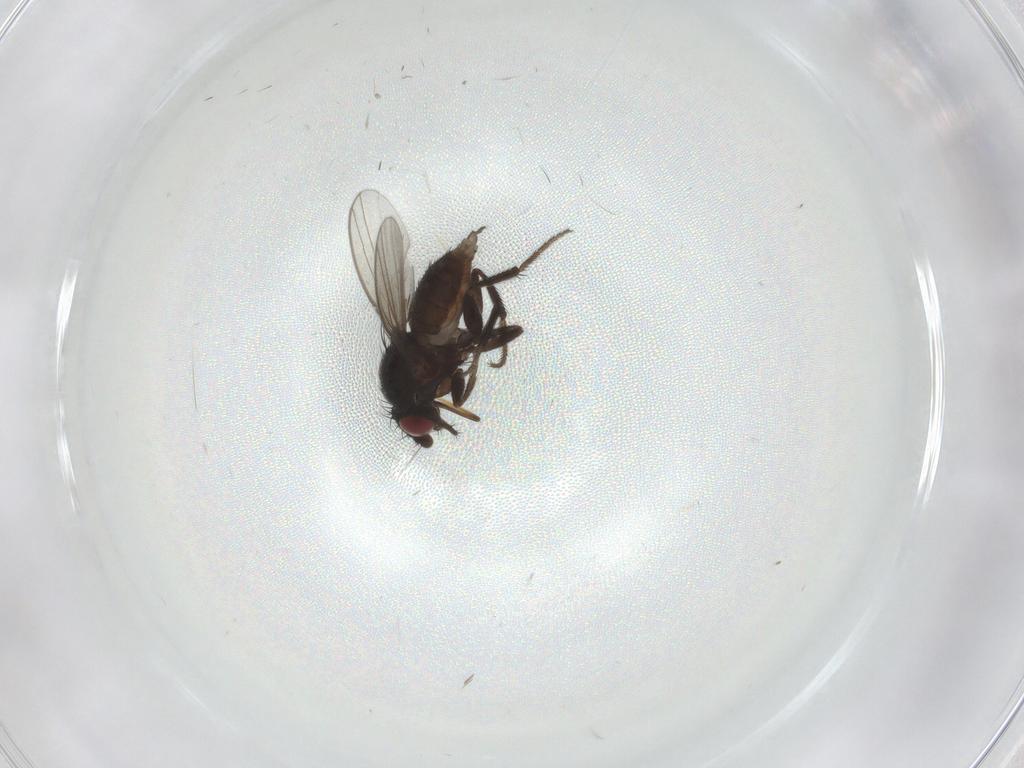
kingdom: Animalia
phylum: Arthropoda
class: Insecta
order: Diptera
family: Milichiidae
